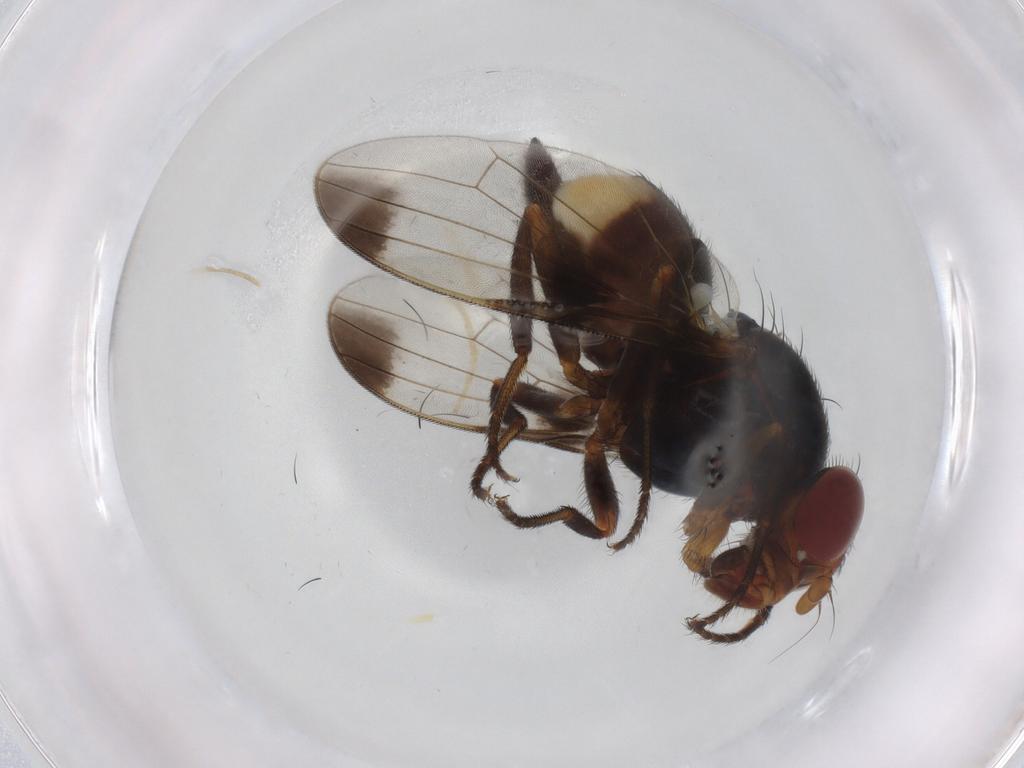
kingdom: Animalia
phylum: Arthropoda
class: Insecta
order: Diptera
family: Ulidiidae
